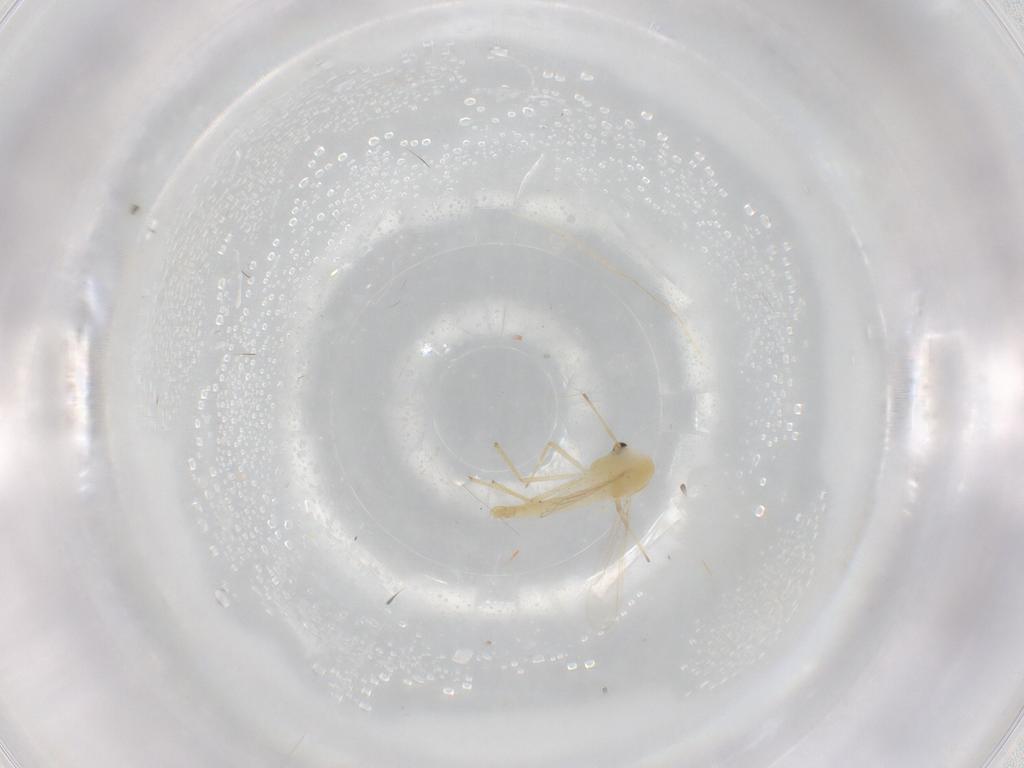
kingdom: Animalia
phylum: Arthropoda
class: Insecta
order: Diptera
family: Chironomidae
